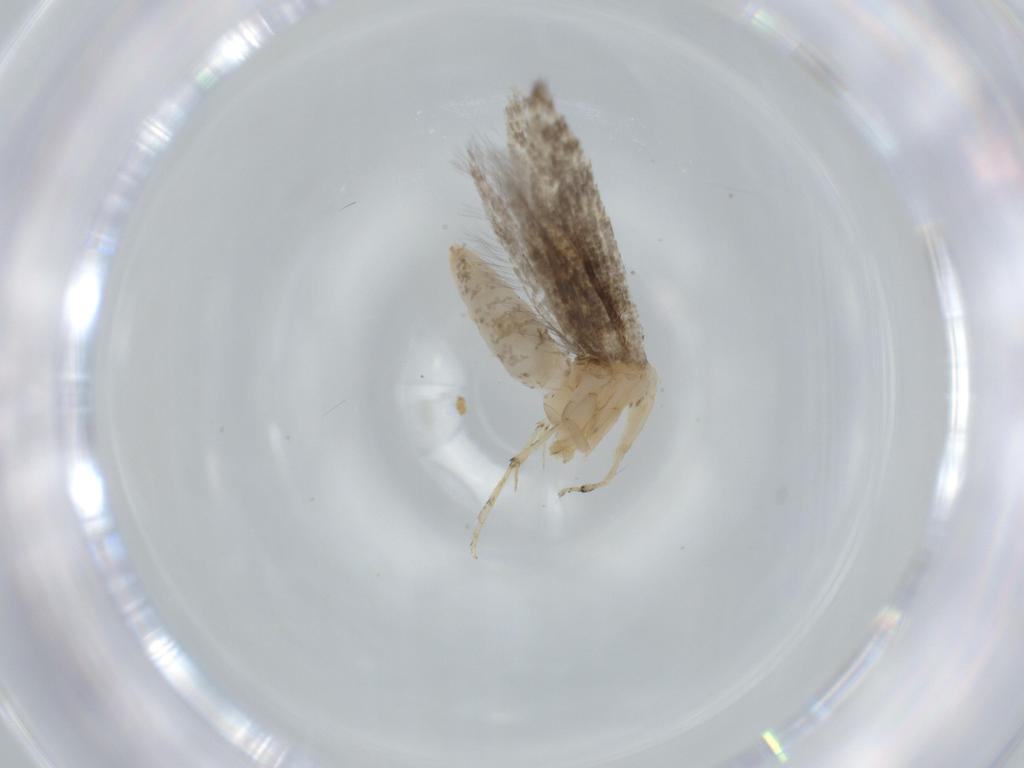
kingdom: Animalia
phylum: Arthropoda
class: Insecta
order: Lepidoptera
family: Argyresthiidae
